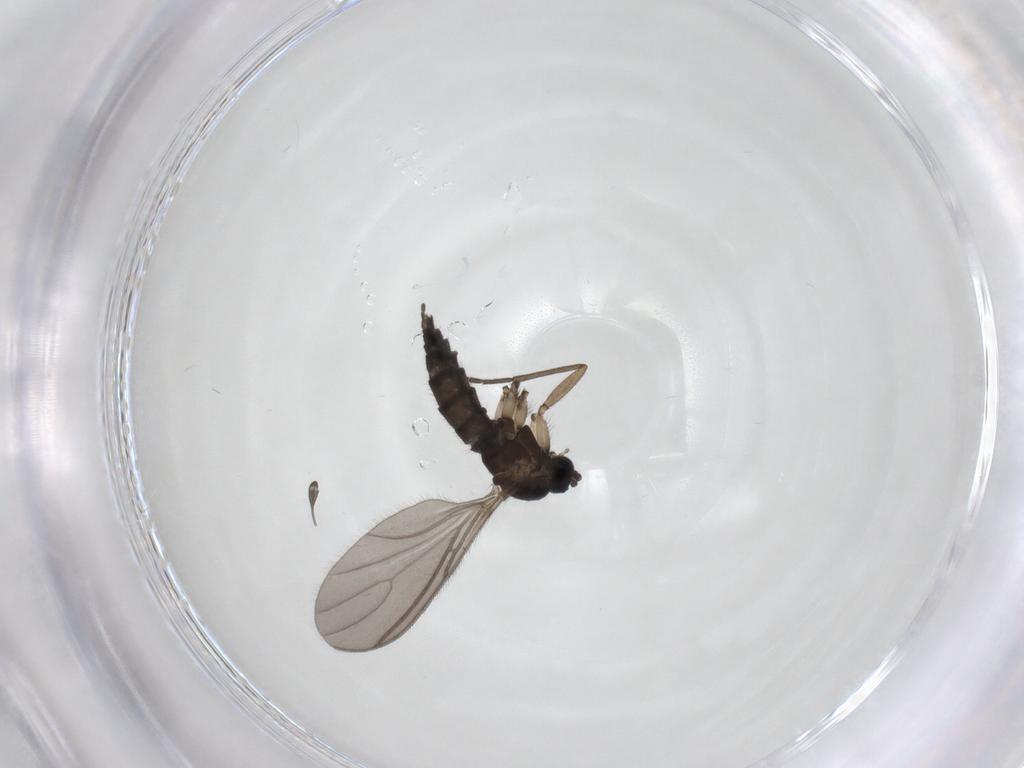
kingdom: Animalia
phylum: Arthropoda
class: Insecta
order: Diptera
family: Sciaridae
